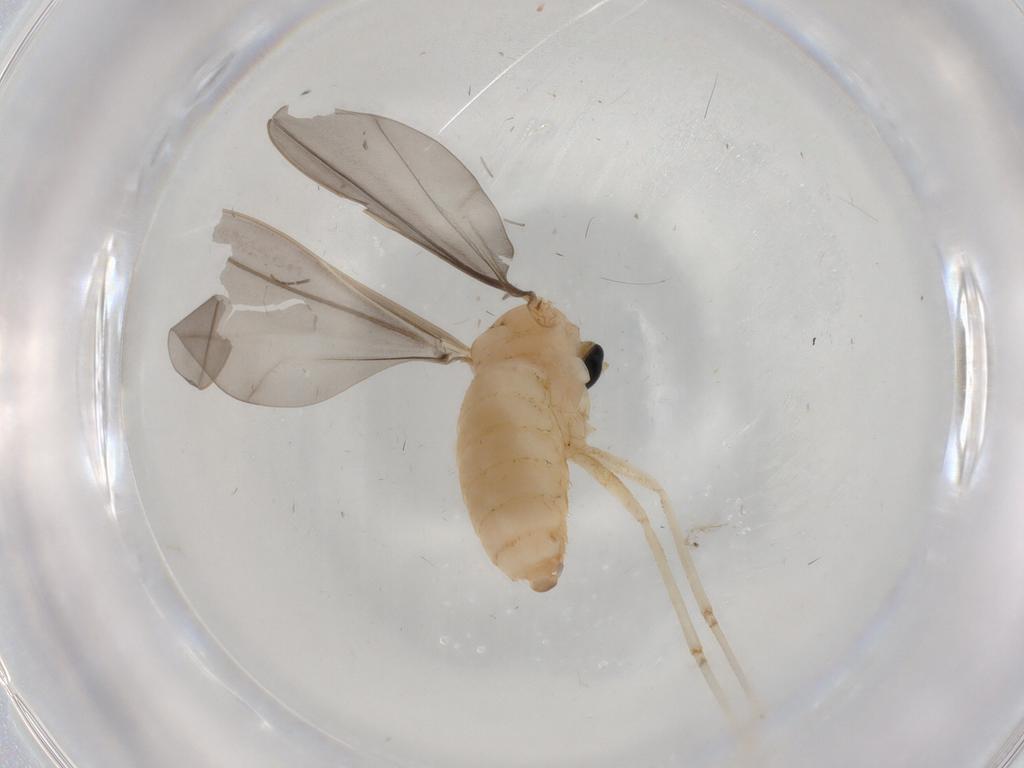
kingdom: Animalia
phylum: Arthropoda
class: Insecta
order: Diptera
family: Cecidomyiidae
